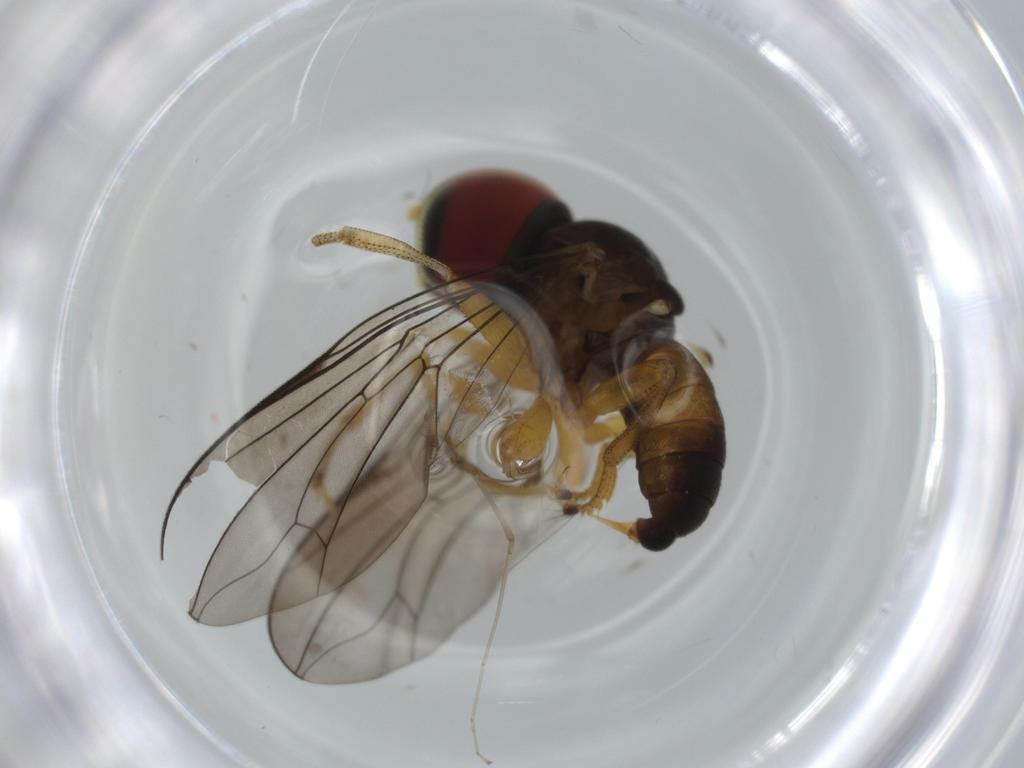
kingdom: Animalia
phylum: Arthropoda
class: Insecta
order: Diptera
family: Pipunculidae
